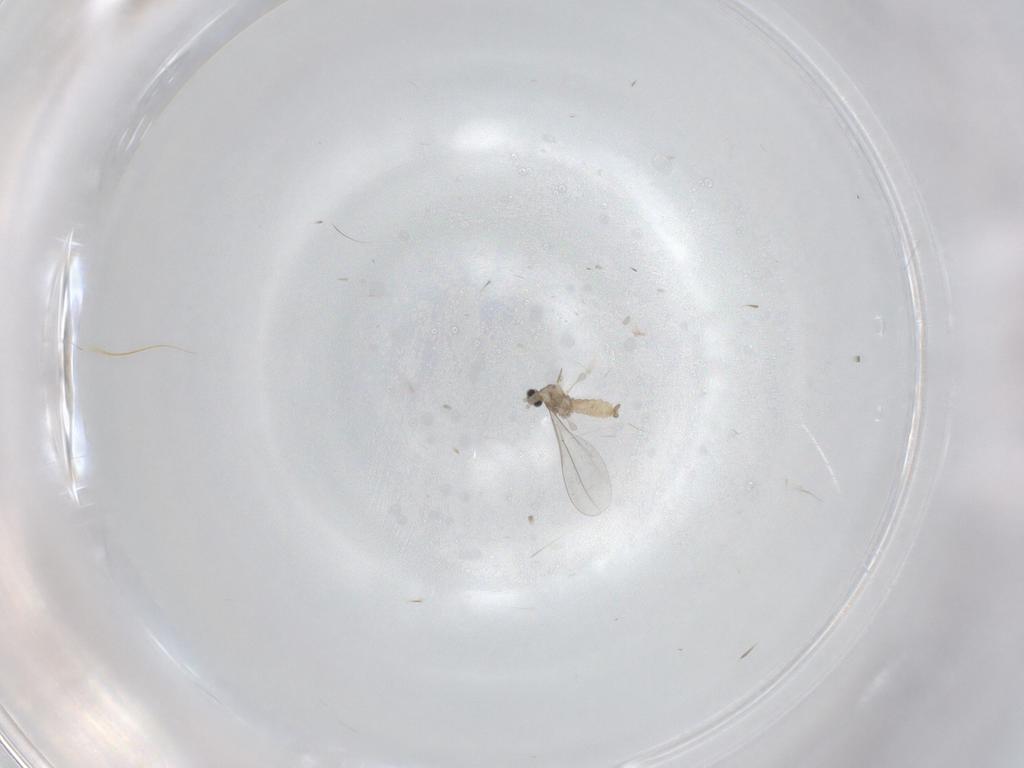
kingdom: Animalia
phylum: Arthropoda
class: Insecta
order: Diptera
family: Cecidomyiidae
